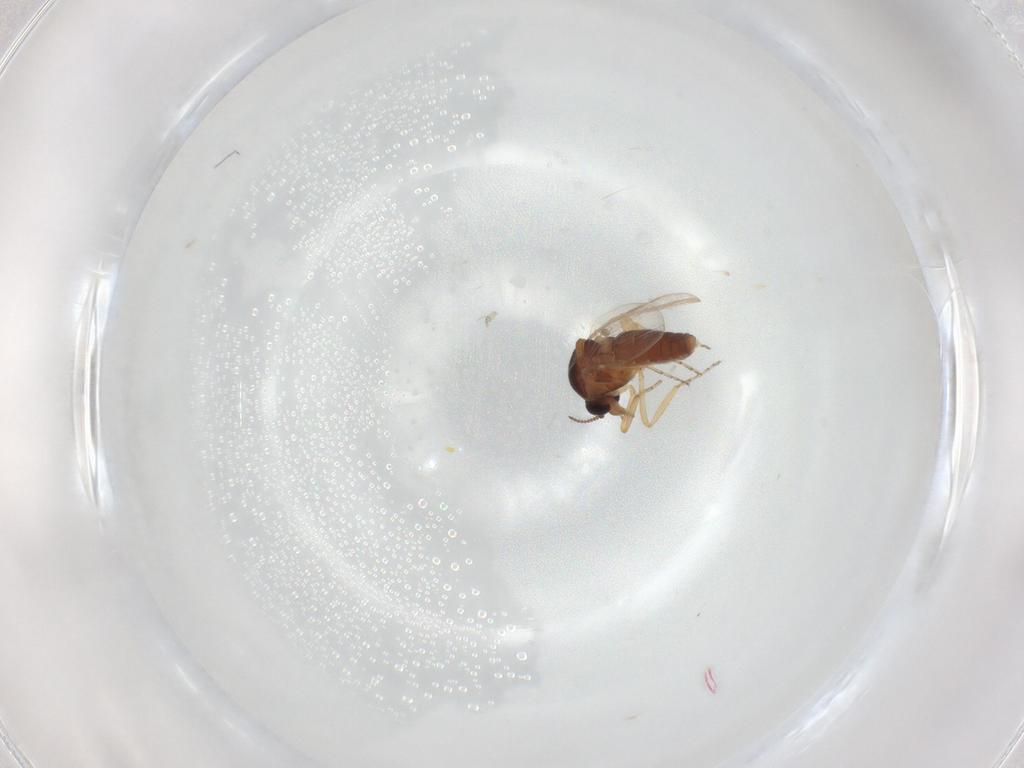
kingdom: Animalia
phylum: Arthropoda
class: Insecta
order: Diptera
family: Ceratopogonidae
